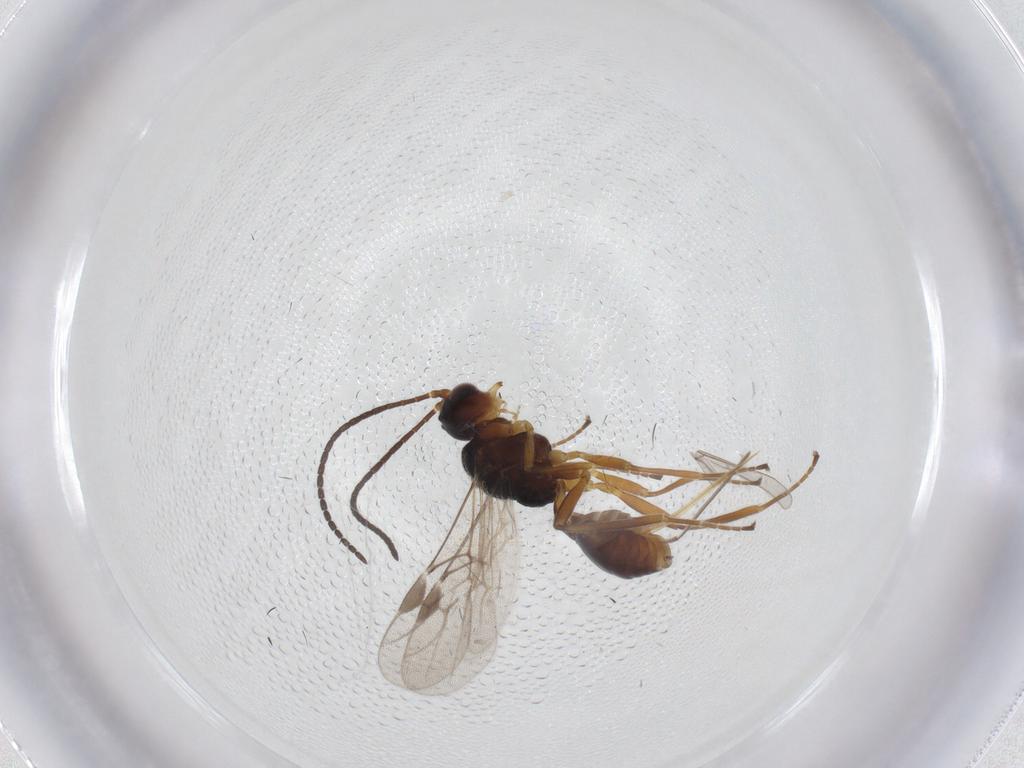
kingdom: Animalia
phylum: Arthropoda
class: Insecta
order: Hymenoptera
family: Braconidae
